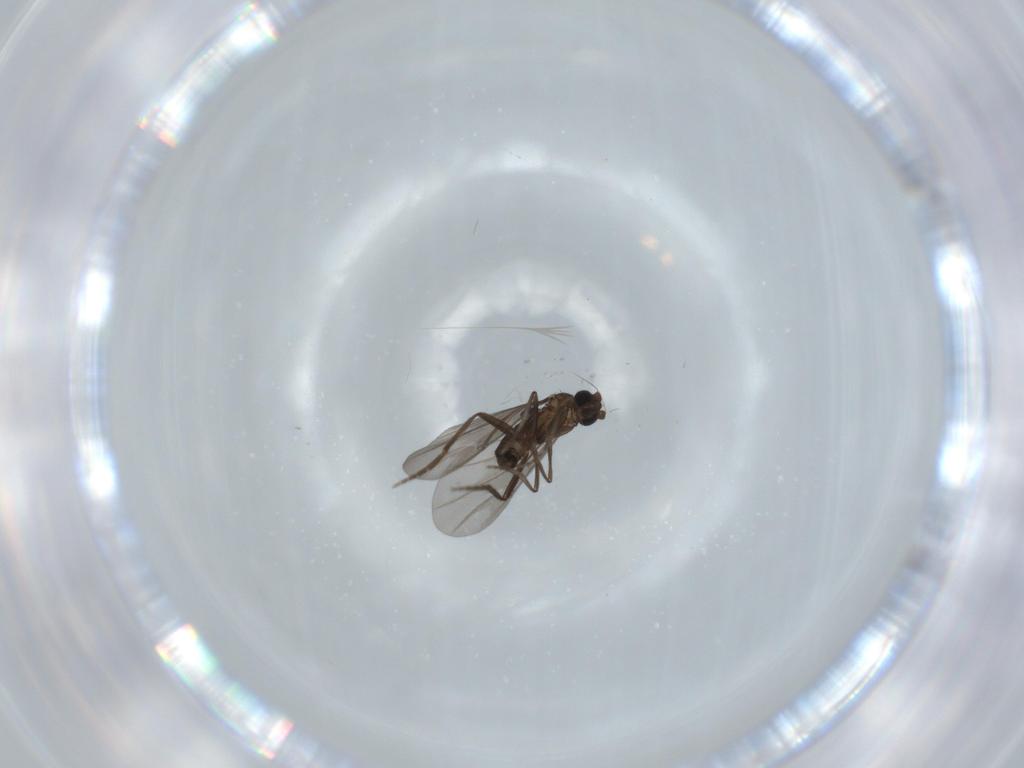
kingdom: Animalia
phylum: Arthropoda
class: Insecta
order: Diptera
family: Phoridae
